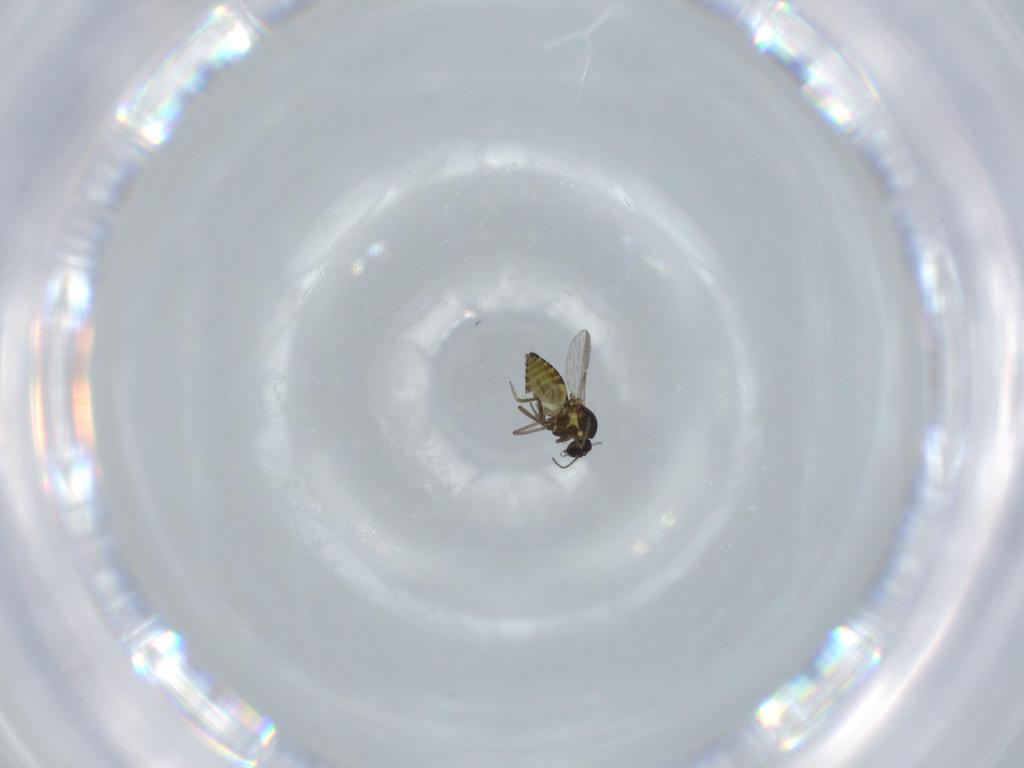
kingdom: Animalia
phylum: Arthropoda
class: Insecta
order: Diptera
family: Ceratopogonidae
